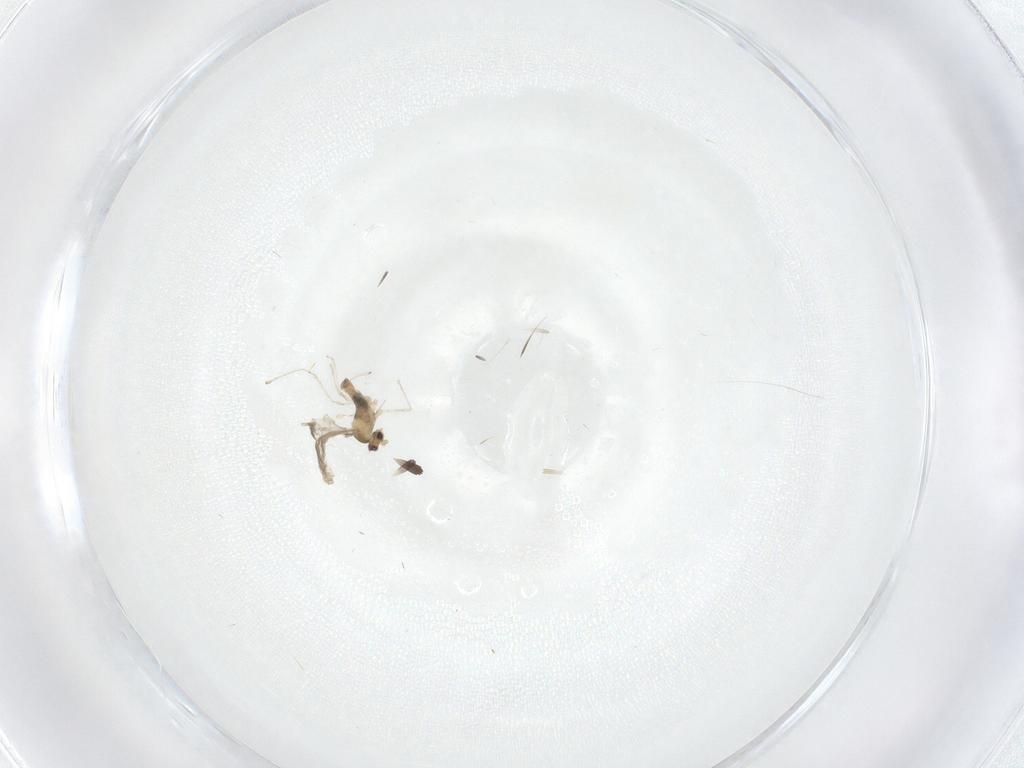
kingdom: Animalia
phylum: Arthropoda
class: Insecta
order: Diptera
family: Cecidomyiidae
